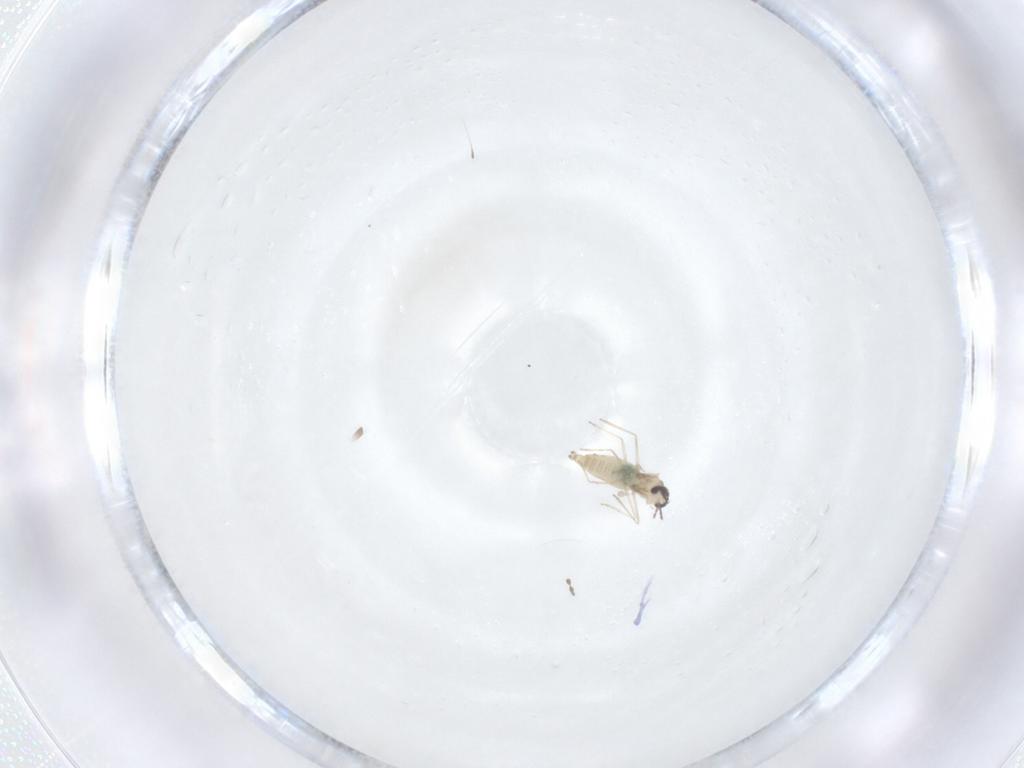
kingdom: Animalia
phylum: Arthropoda
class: Insecta
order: Diptera
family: Cecidomyiidae
